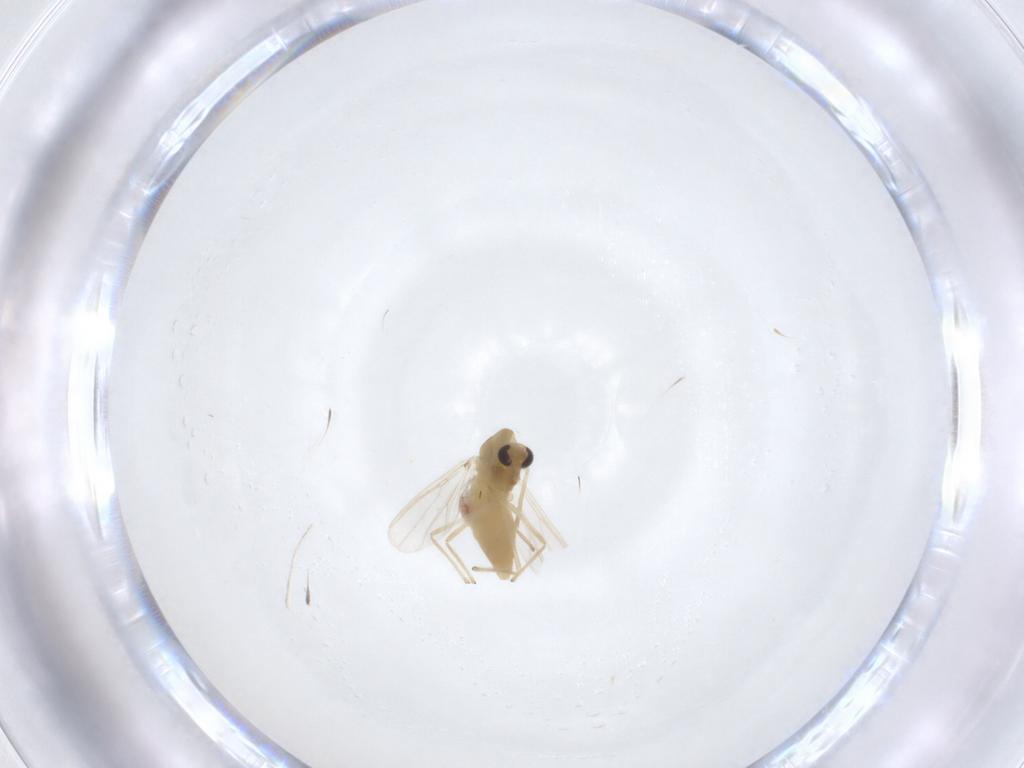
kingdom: Animalia
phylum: Arthropoda
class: Insecta
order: Diptera
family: Chironomidae
